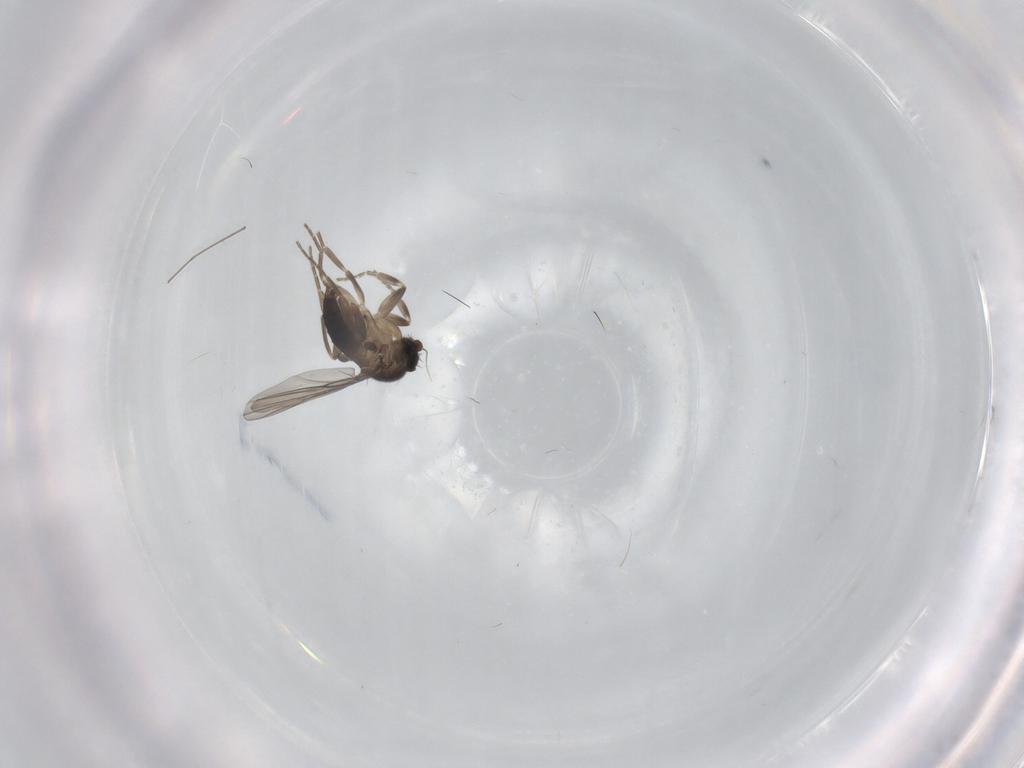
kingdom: Animalia
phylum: Arthropoda
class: Insecta
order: Diptera
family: Chironomidae
